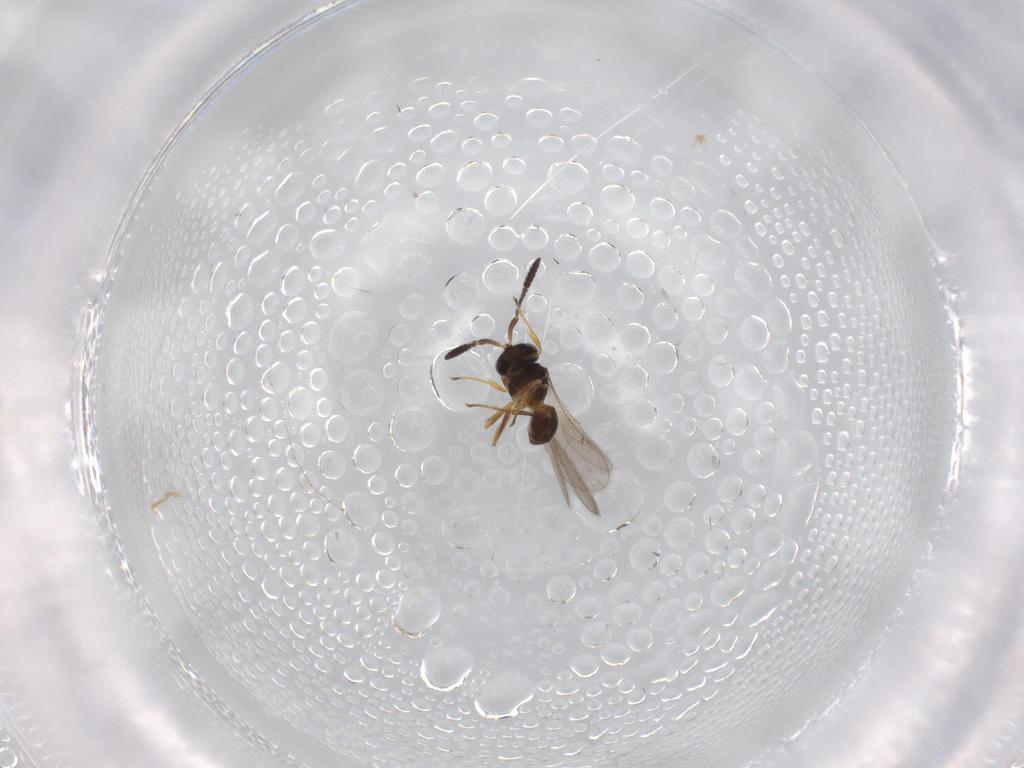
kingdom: Animalia
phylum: Arthropoda
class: Insecta
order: Hymenoptera
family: Scelionidae
